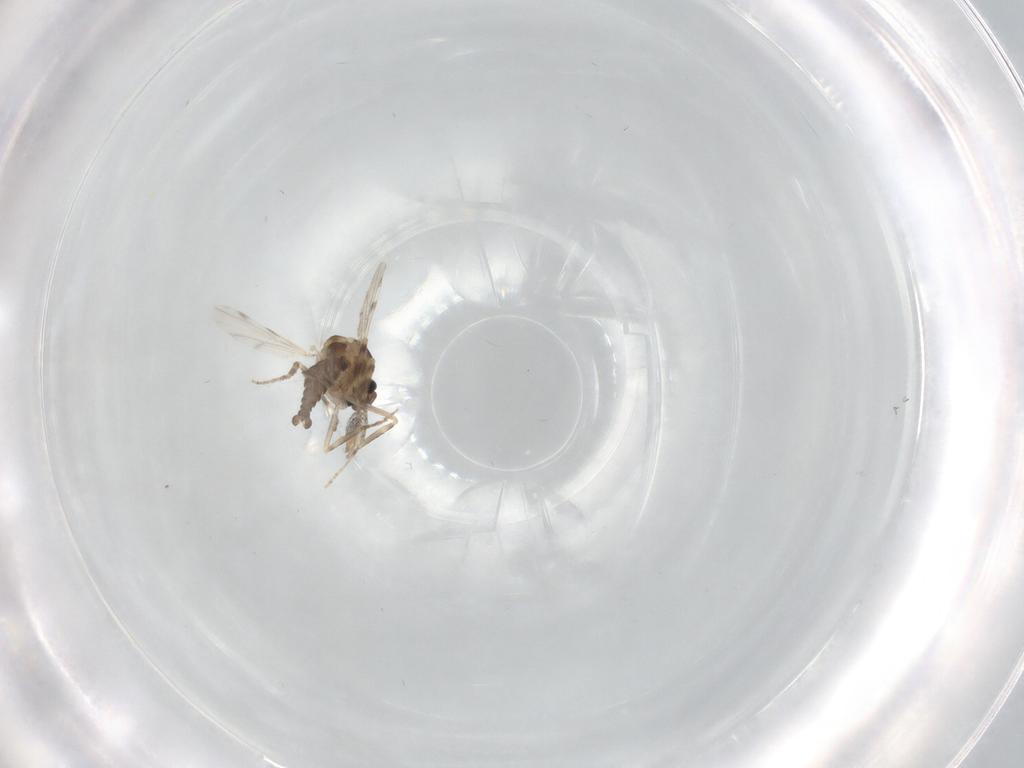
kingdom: Animalia
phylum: Arthropoda
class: Insecta
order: Diptera
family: Ceratopogonidae
